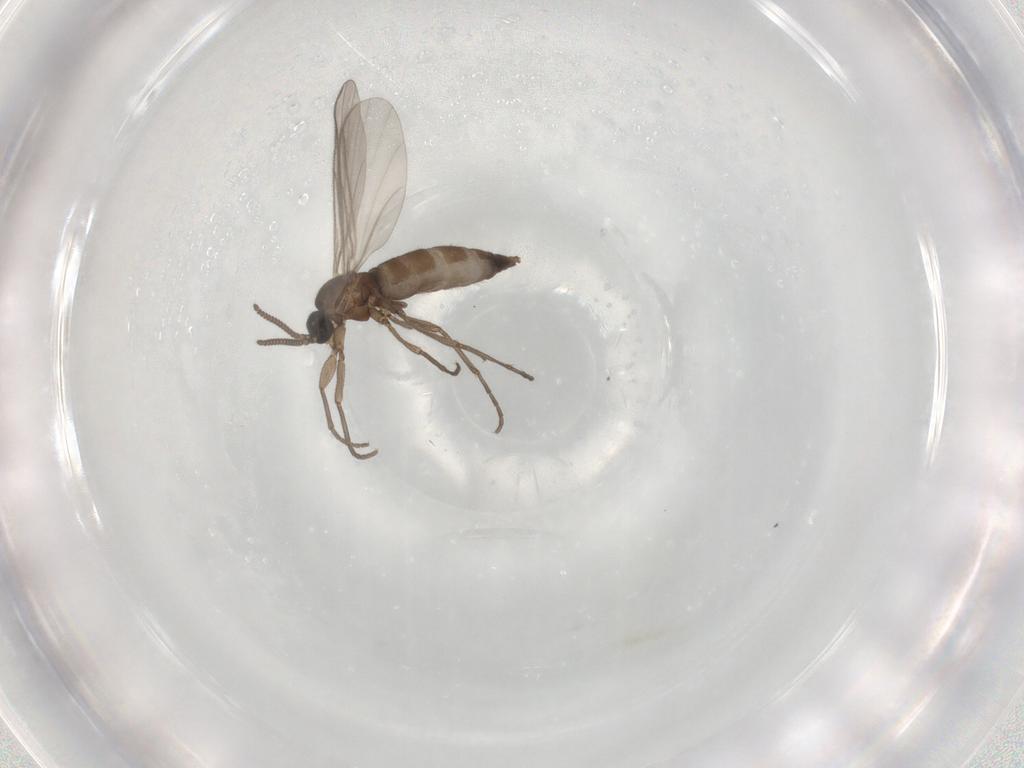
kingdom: Animalia
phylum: Arthropoda
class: Insecta
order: Diptera
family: Sciaridae
